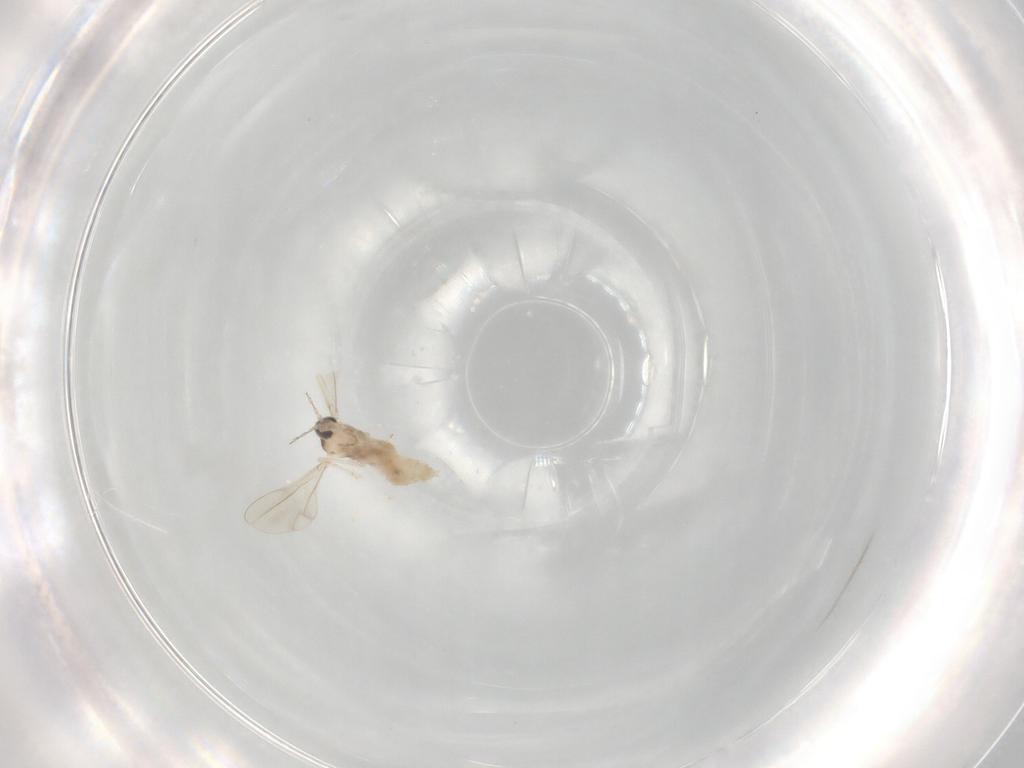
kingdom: Animalia
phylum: Arthropoda
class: Insecta
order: Diptera
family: Cecidomyiidae
